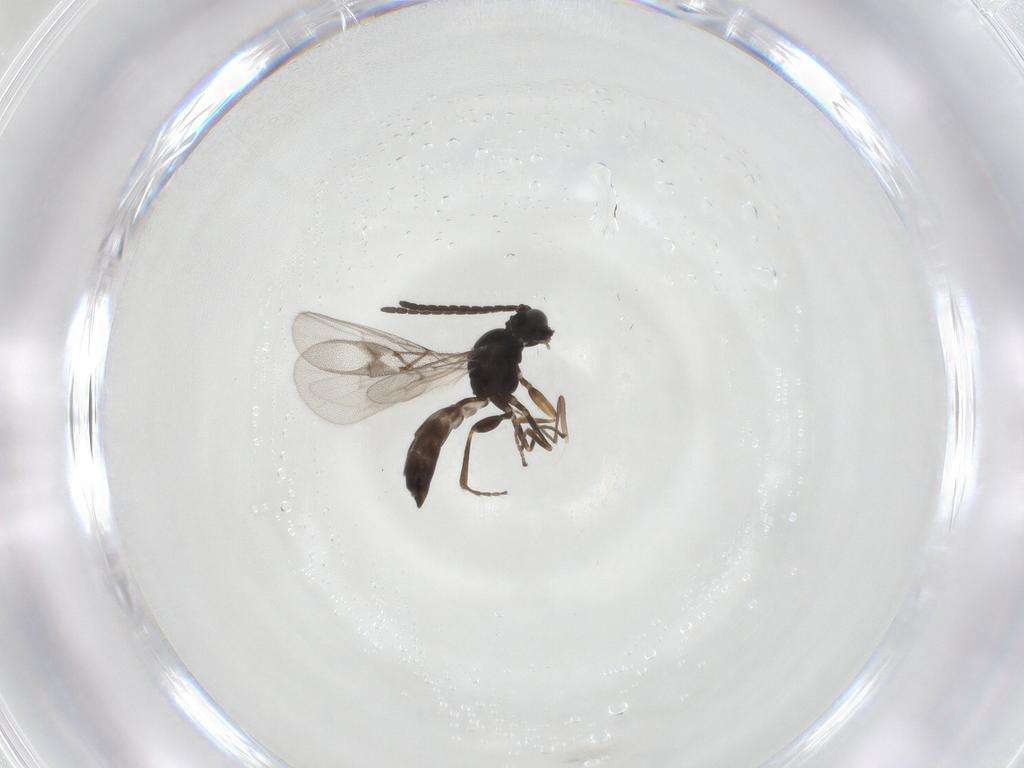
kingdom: Animalia
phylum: Arthropoda
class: Insecta
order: Hymenoptera
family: Braconidae
